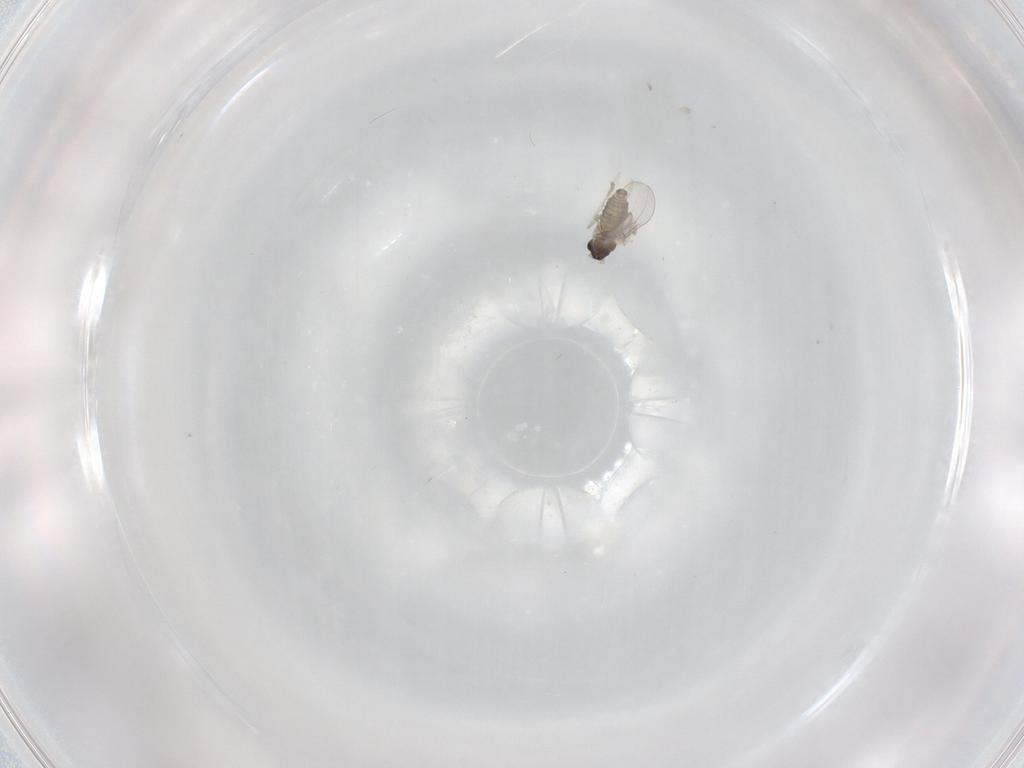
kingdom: Animalia
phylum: Arthropoda
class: Insecta
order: Diptera
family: Cecidomyiidae
